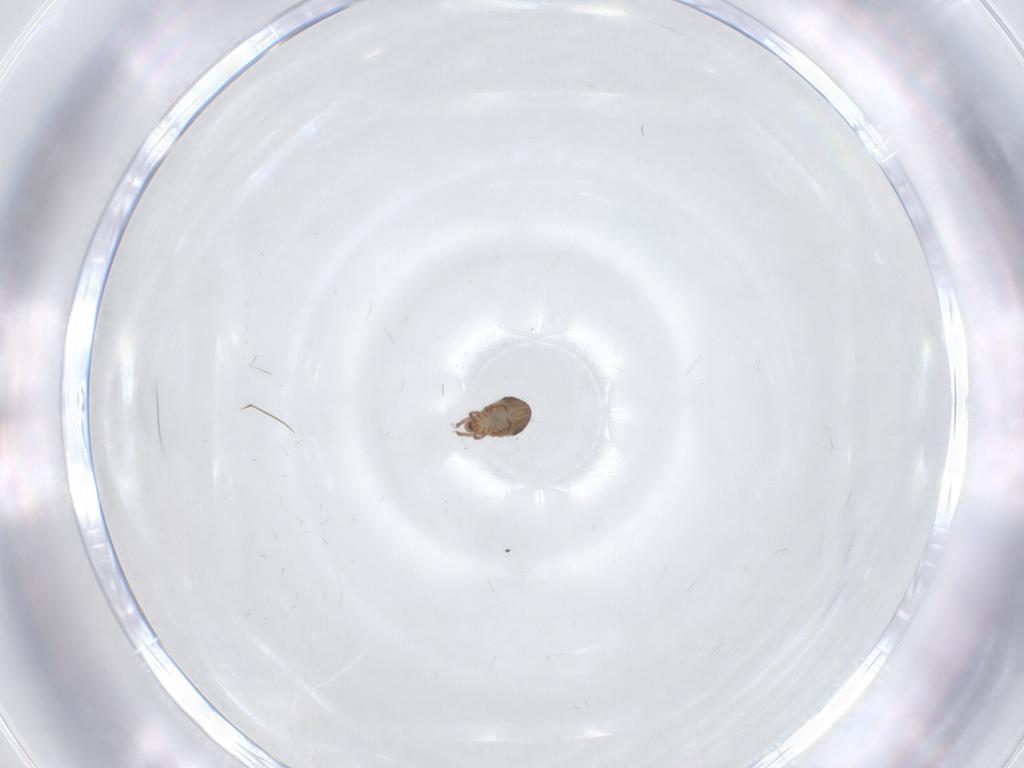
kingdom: Animalia
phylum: Arthropoda
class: Arachnida
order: Sarcoptiformes
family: Ceratozetidae
